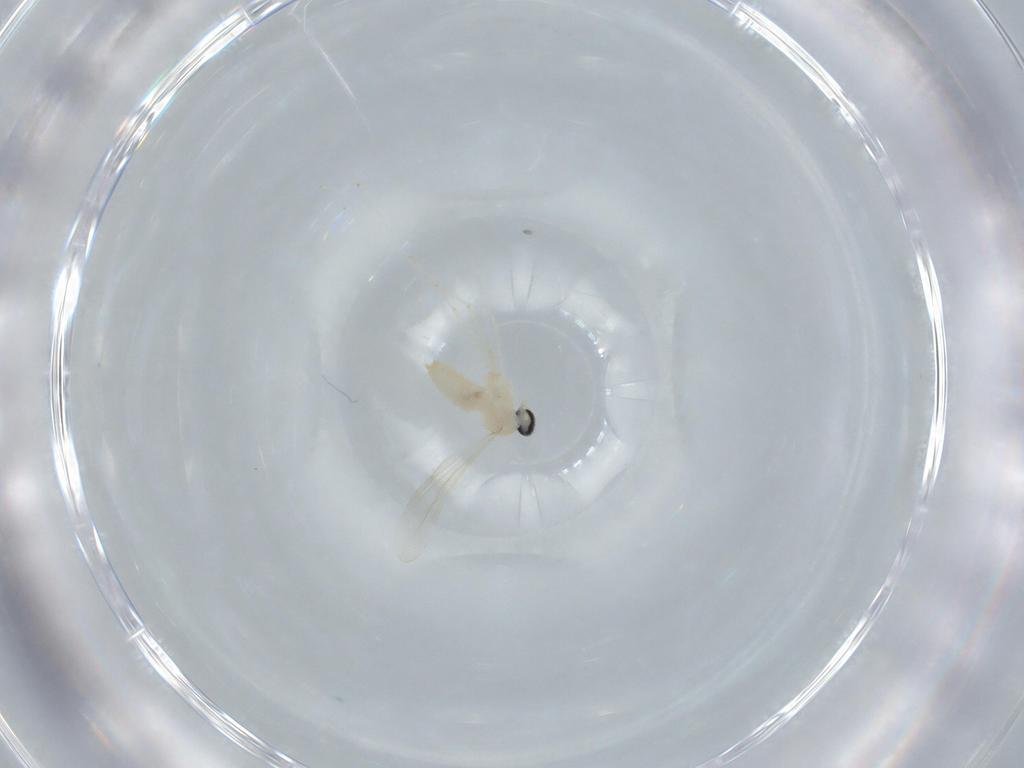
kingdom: Animalia
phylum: Arthropoda
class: Insecta
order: Diptera
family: Cecidomyiidae
